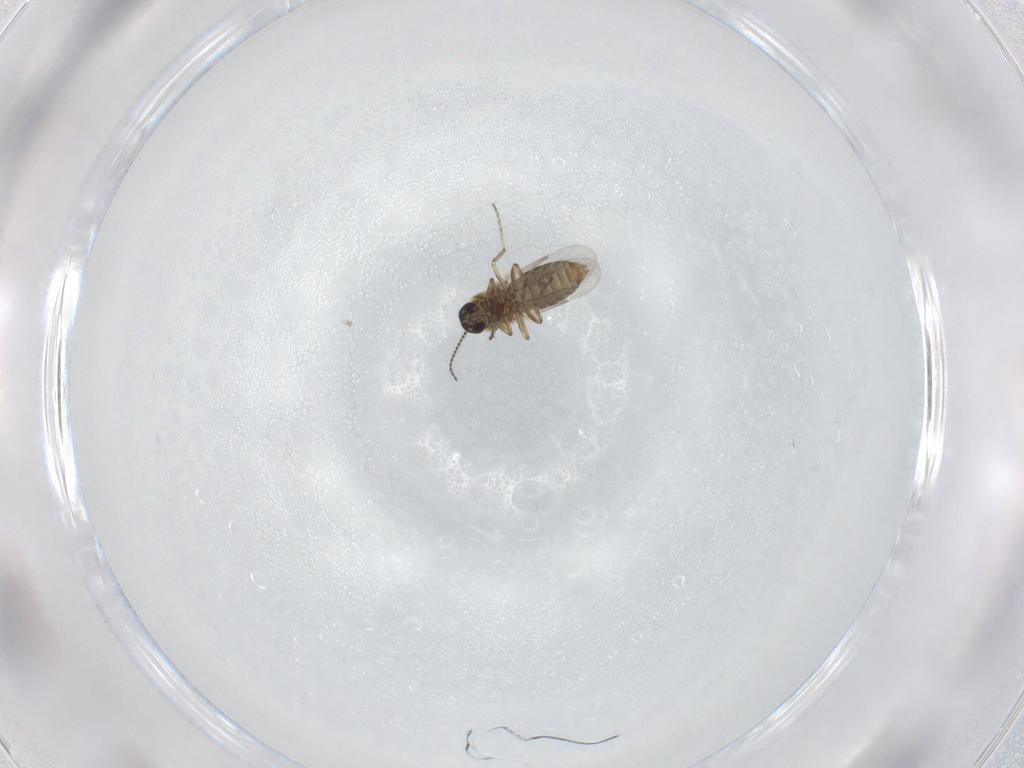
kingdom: Animalia
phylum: Arthropoda
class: Insecta
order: Diptera
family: Ceratopogonidae
